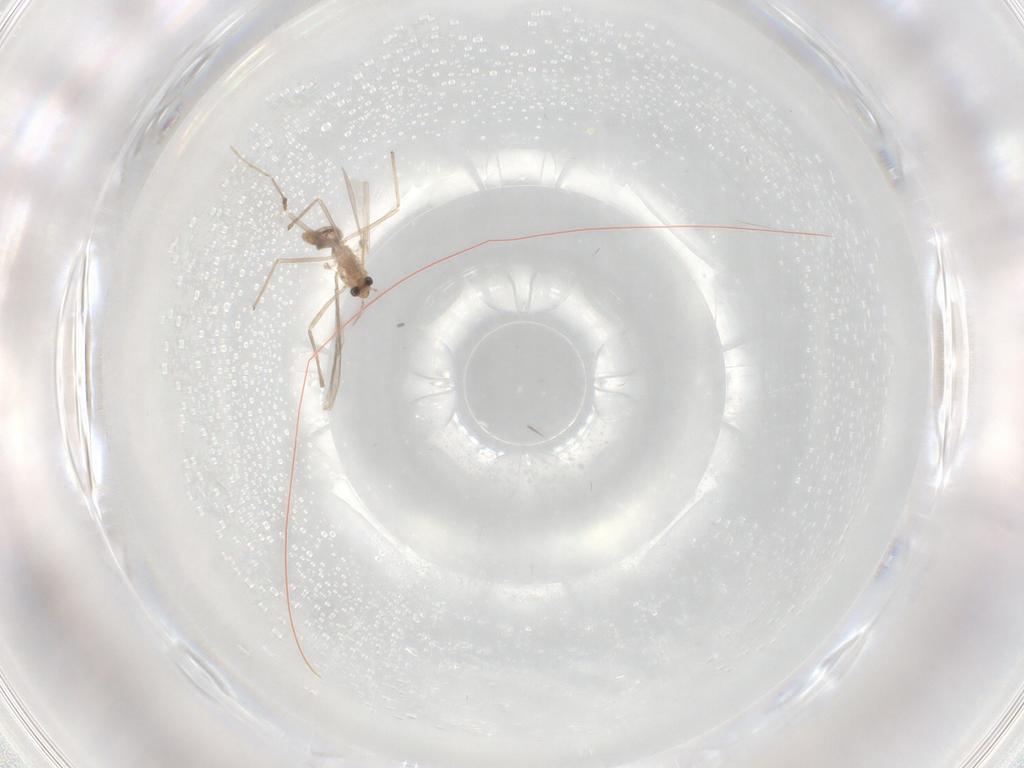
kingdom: Animalia
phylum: Arthropoda
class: Insecta
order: Diptera
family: Chironomidae
